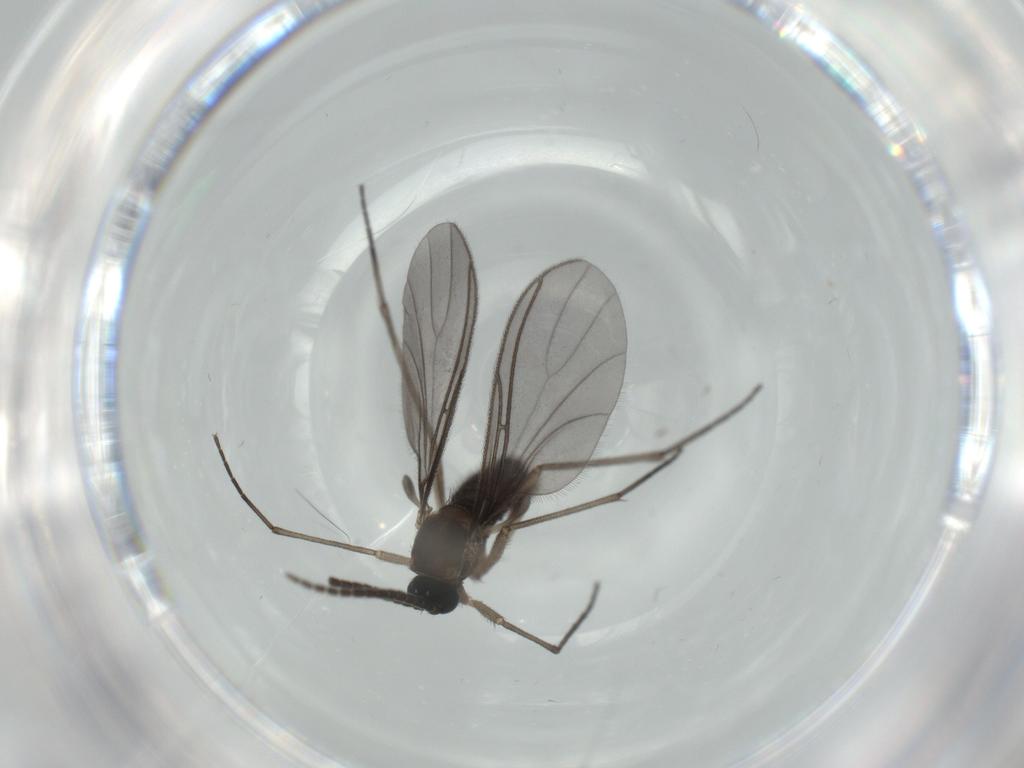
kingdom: Animalia
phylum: Arthropoda
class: Insecta
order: Diptera
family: Sciaridae
